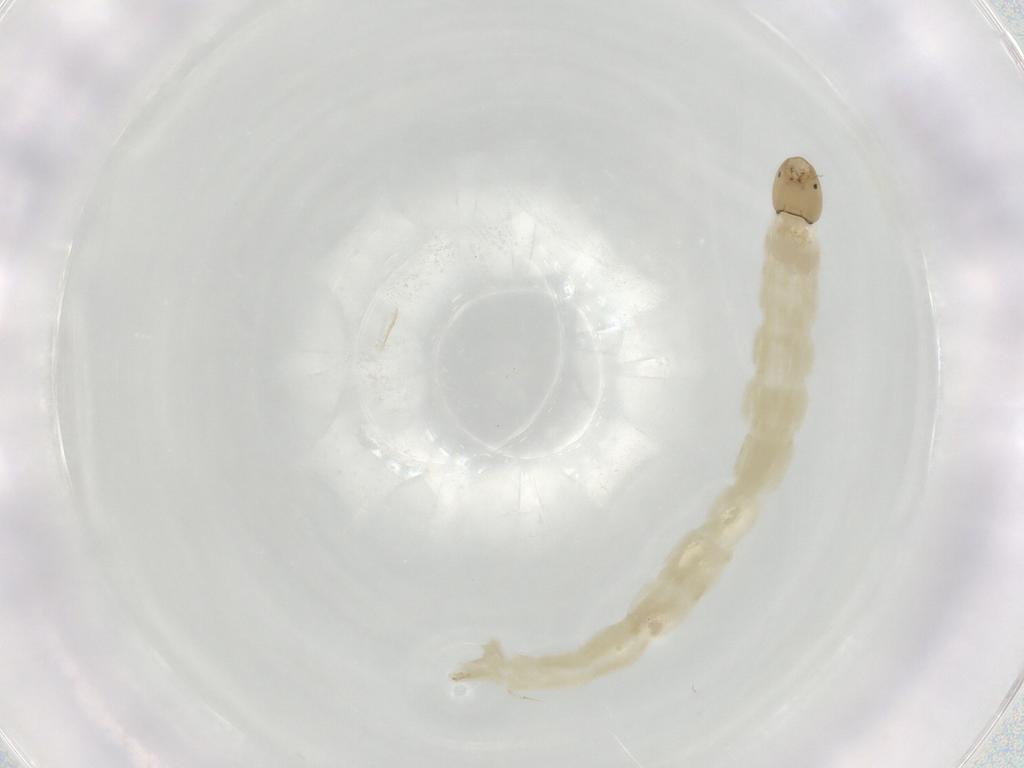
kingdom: Animalia
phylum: Arthropoda
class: Insecta
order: Diptera
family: Chironomidae
